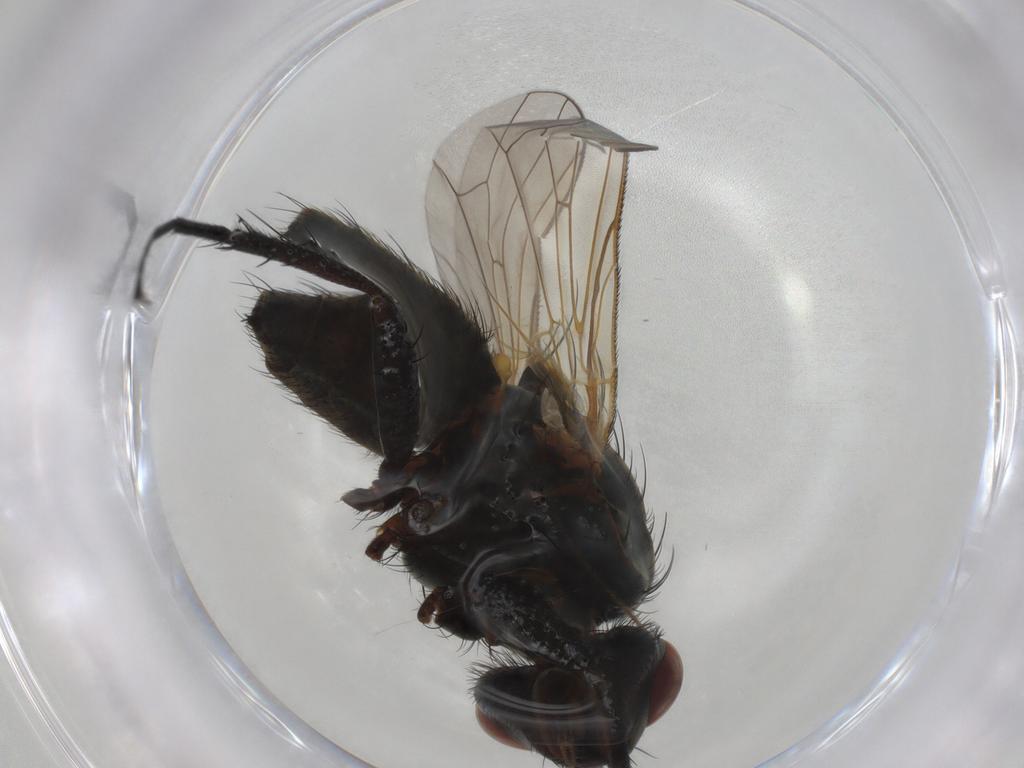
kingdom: Animalia
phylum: Arthropoda
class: Insecta
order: Diptera
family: Anthomyiidae
